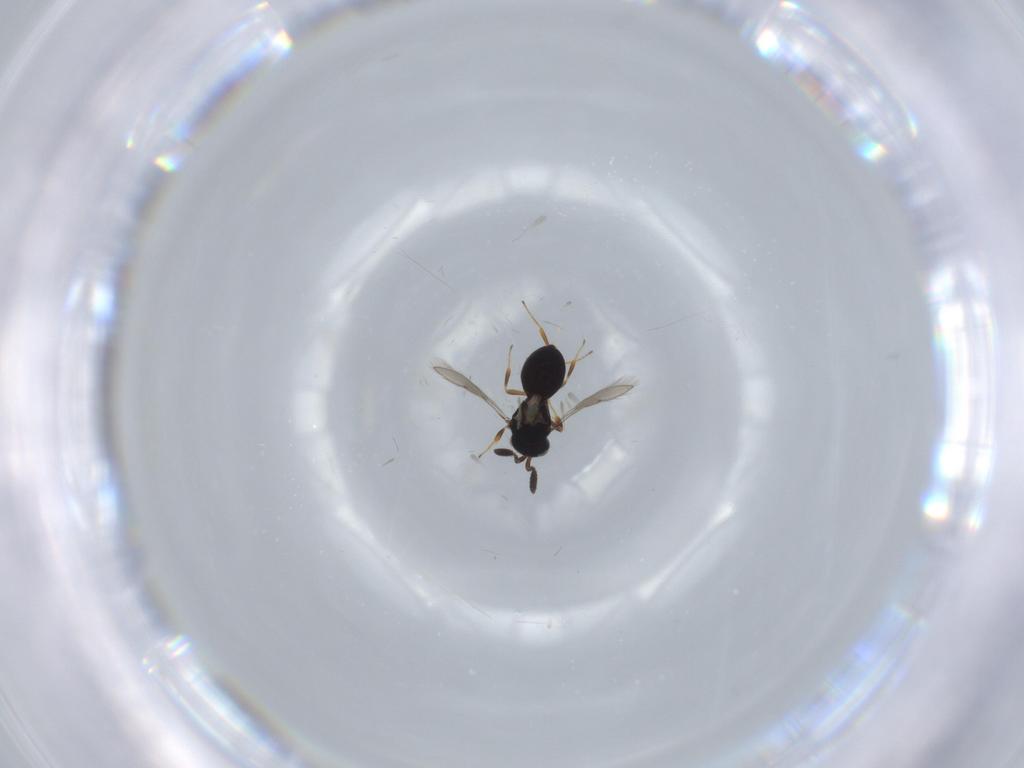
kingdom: Animalia
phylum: Arthropoda
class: Insecta
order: Hymenoptera
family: Scelionidae
